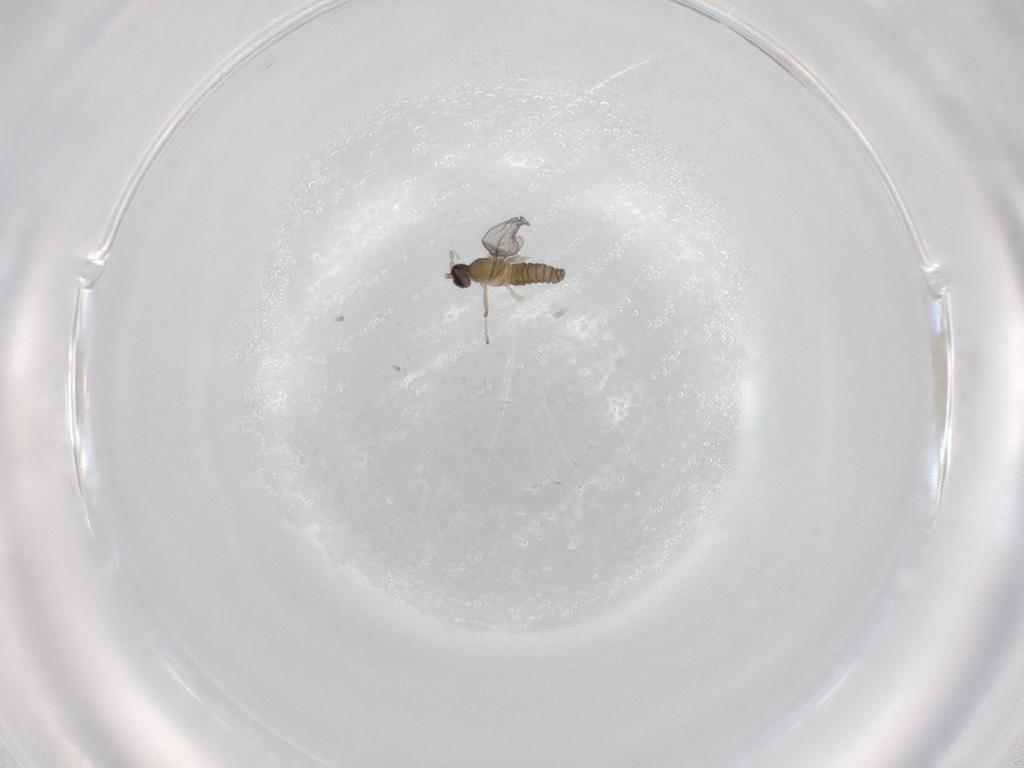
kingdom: Animalia
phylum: Arthropoda
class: Insecta
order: Diptera
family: Cecidomyiidae
